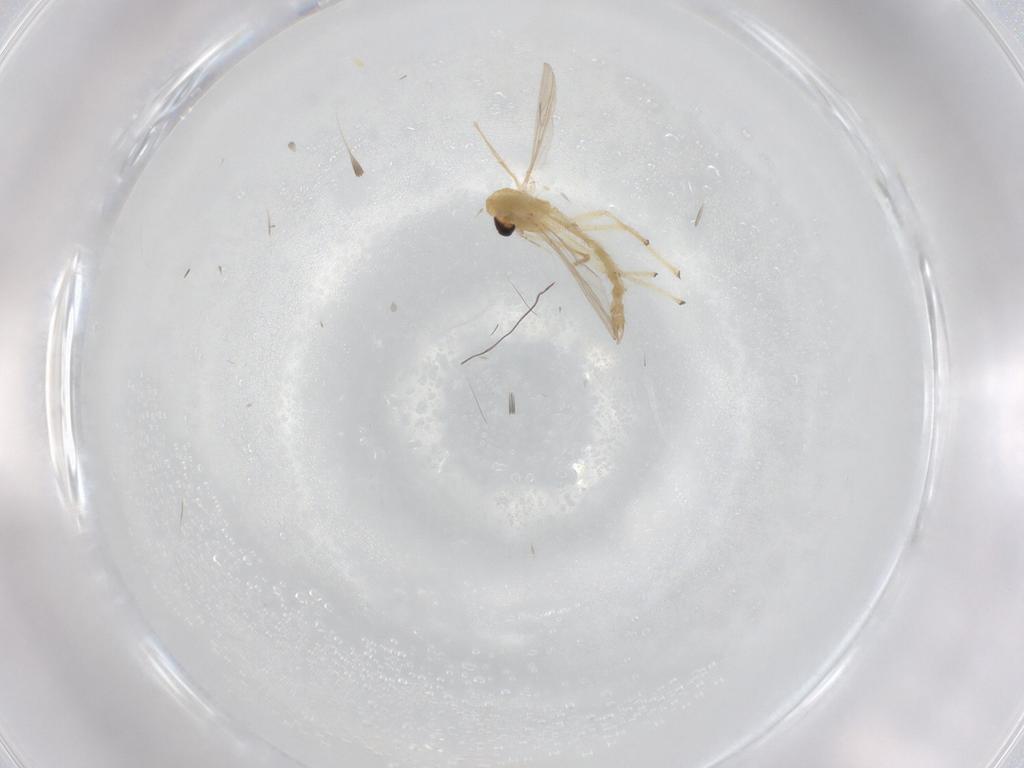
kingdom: Animalia
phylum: Arthropoda
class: Insecta
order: Diptera
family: Chironomidae
